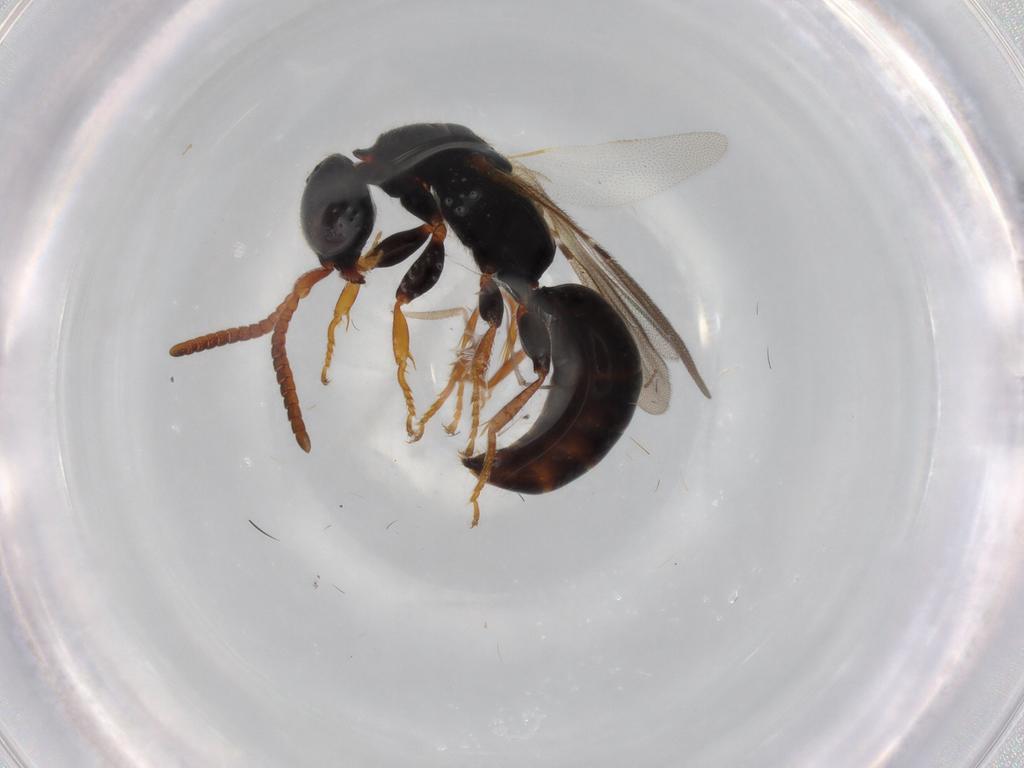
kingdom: Animalia
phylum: Arthropoda
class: Insecta
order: Hymenoptera
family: Bethylidae
